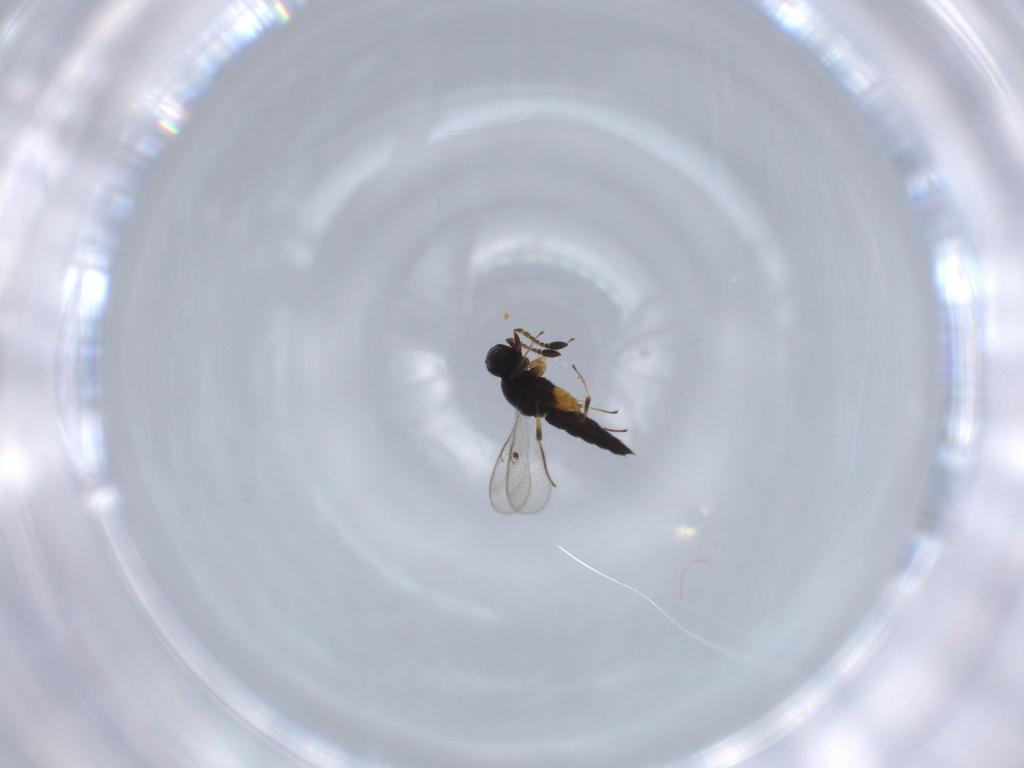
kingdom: Animalia
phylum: Arthropoda
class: Insecta
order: Hymenoptera
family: Scelionidae
